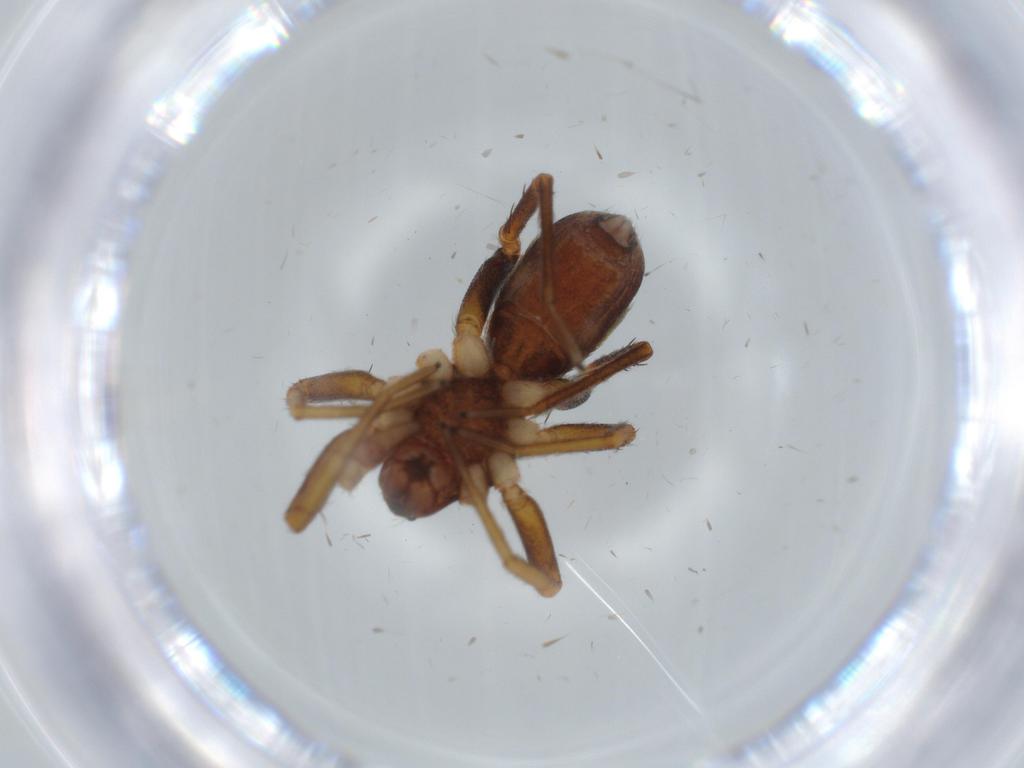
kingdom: Animalia
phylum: Arthropoda
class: Arachnida
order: Araneae
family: Corinnidae
